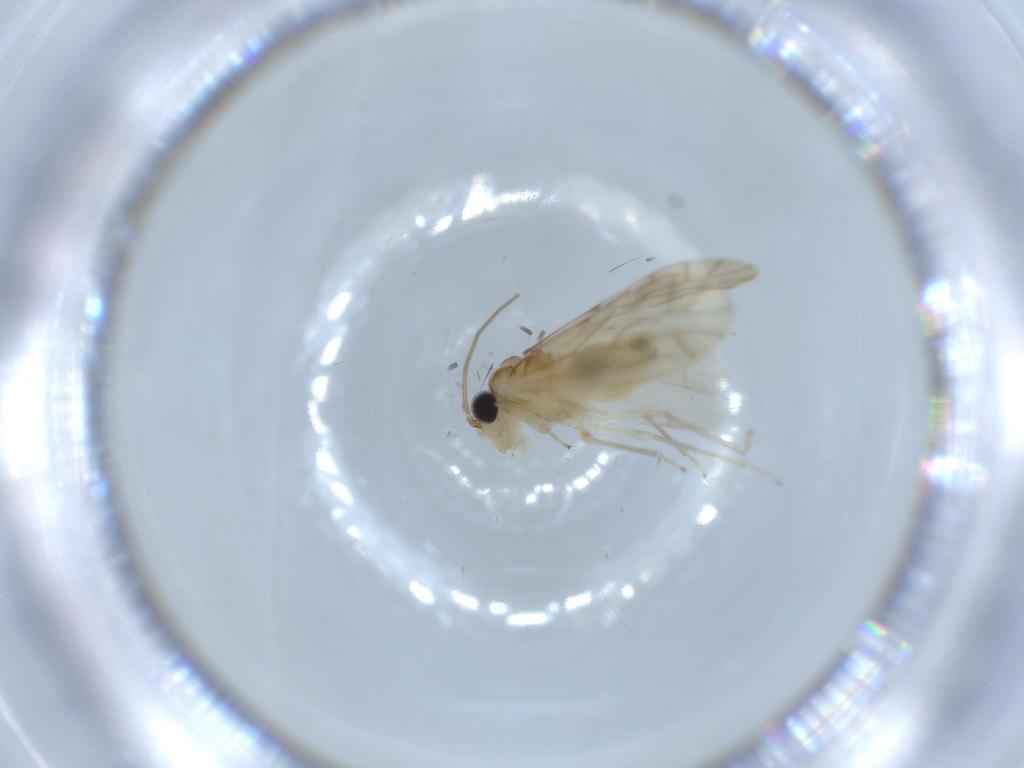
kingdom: Animalia
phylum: Arthropoda
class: Insecta
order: Psocodea
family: Caeciliusidae
